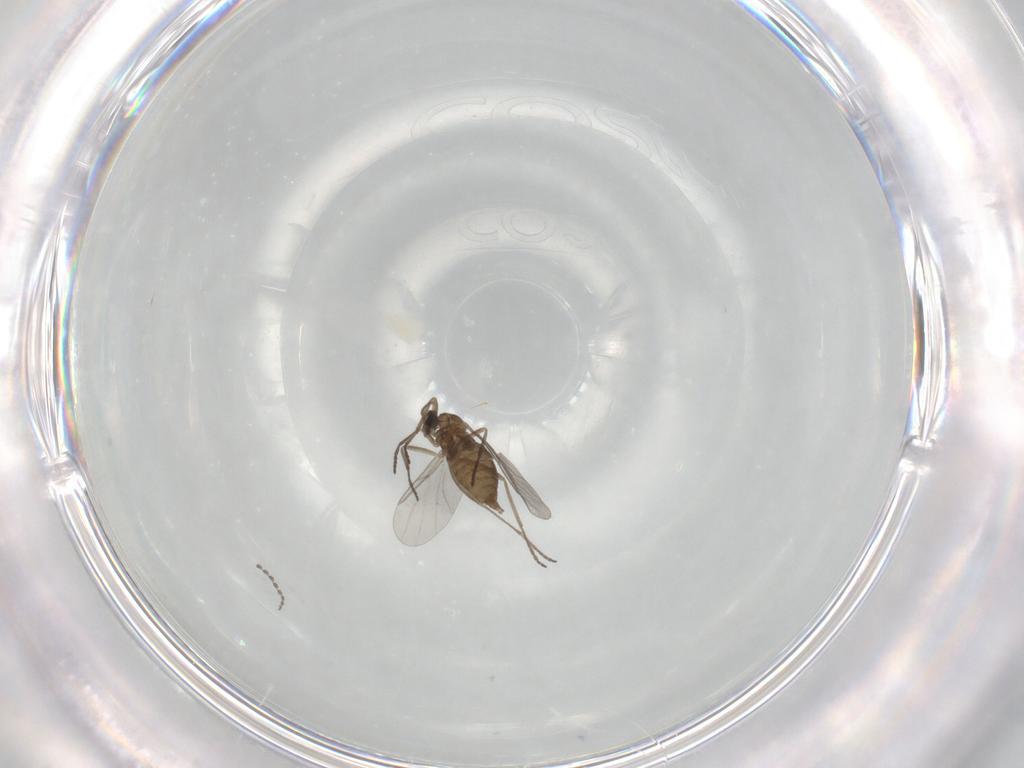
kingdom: Animalia
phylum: Arthropoda
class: Insecta
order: Diptera
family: Cecidomyiidae
